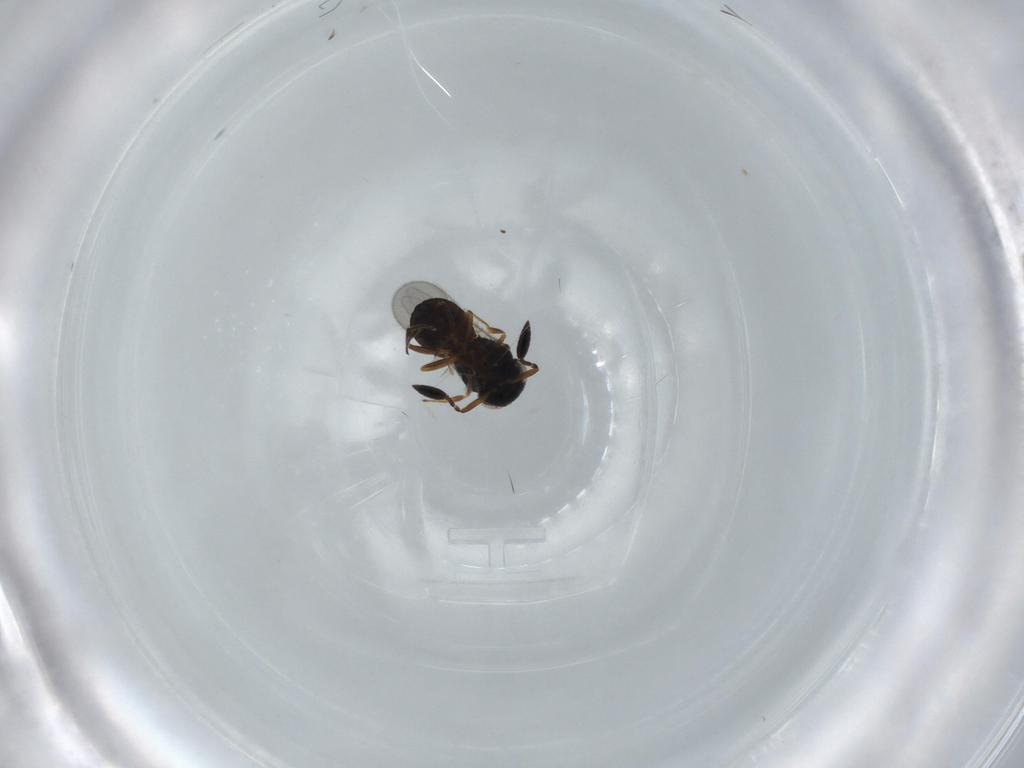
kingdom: Animalia
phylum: Arthropoda
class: Insecta
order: Hymenoptera
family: Scelionidae
